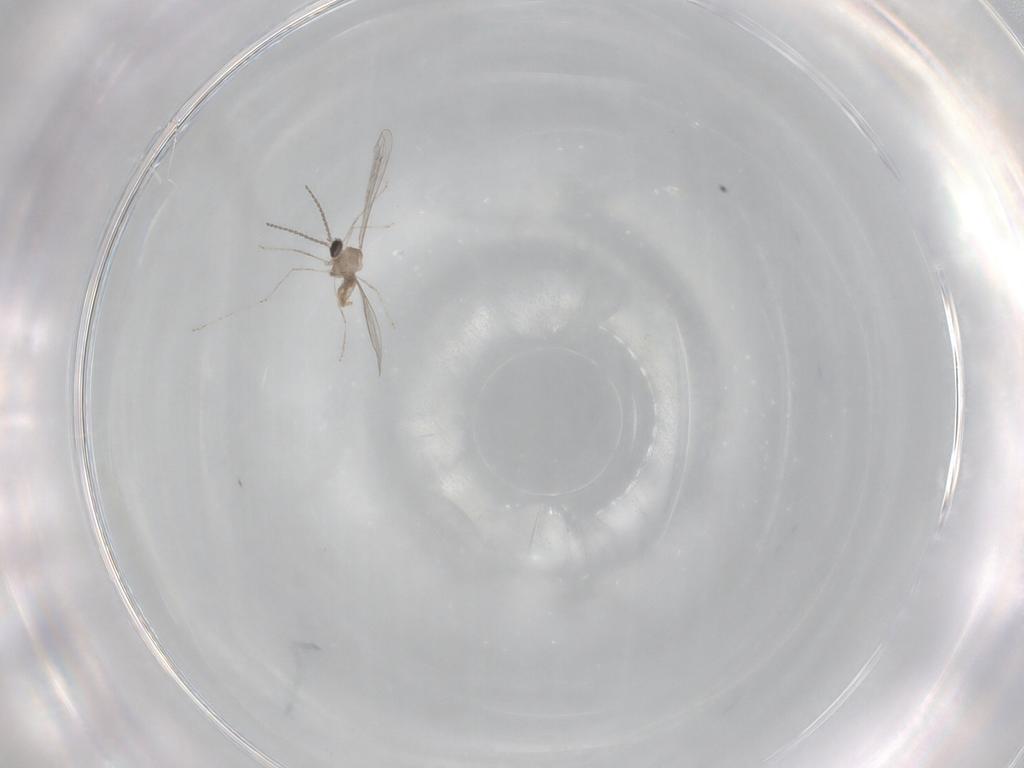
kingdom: Animalia
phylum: Arthropoda
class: Insecta
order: Diptera
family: Cecidomyiidae
